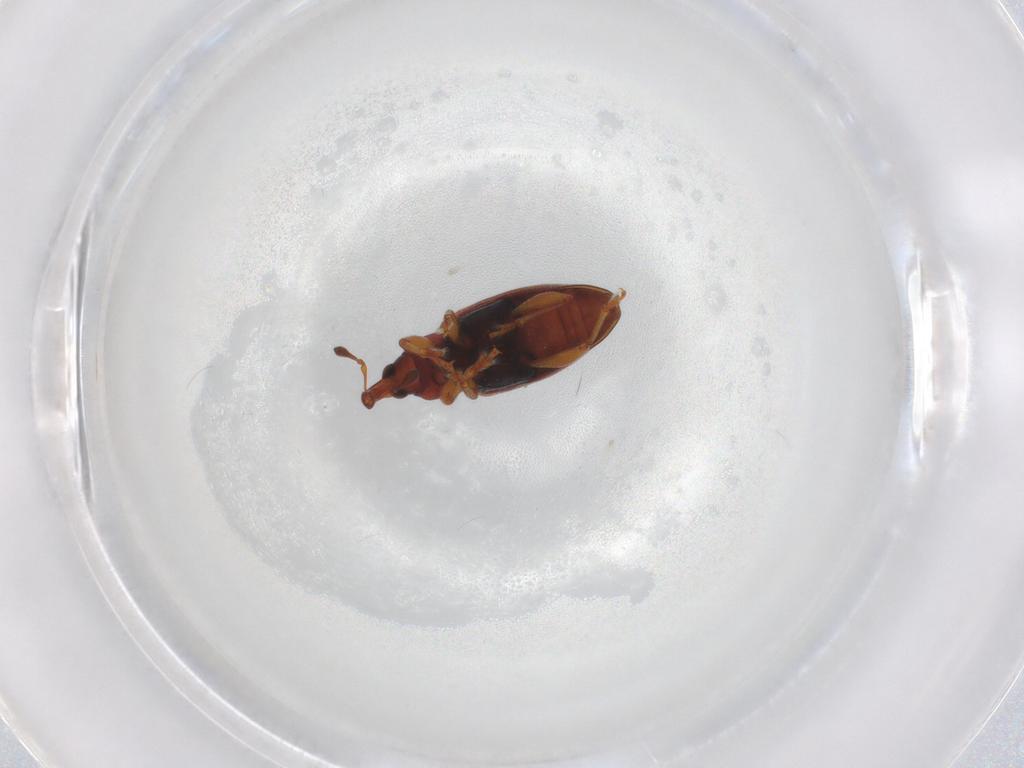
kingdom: Animalia
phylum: Arthropoda
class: Insecta
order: Coleoptera
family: Curculionidae
